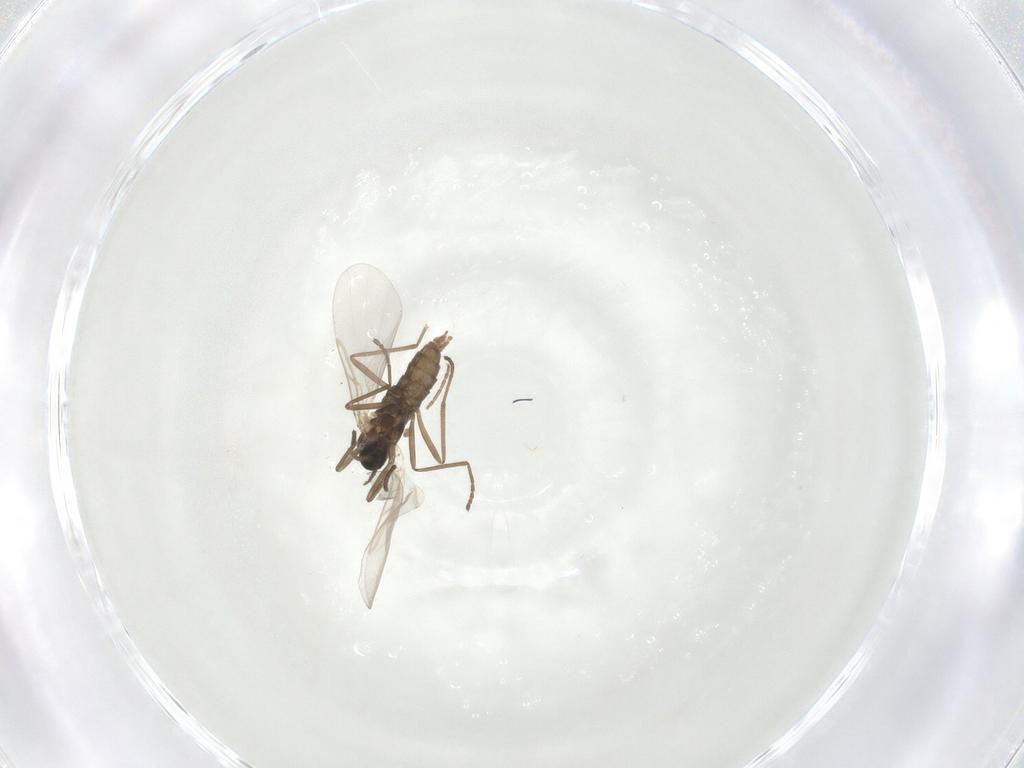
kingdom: Animalia
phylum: Arthropoda
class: Insecta
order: Diptera
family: Cecidomyiidae
